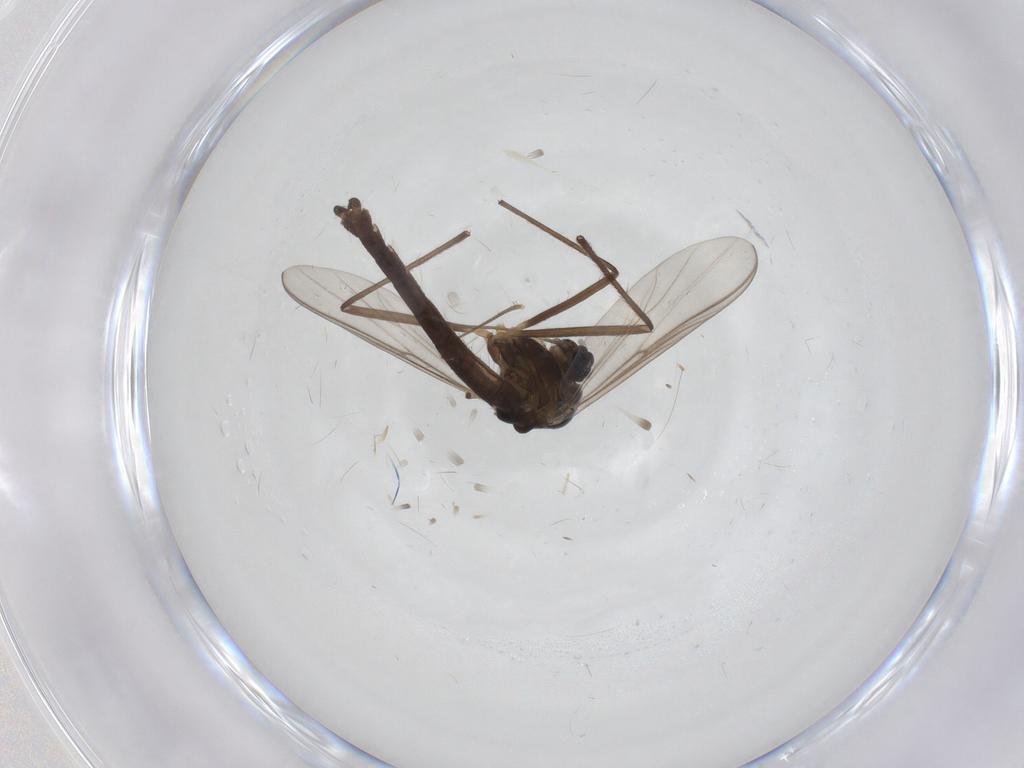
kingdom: Animalia
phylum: Arthropoda
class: Insecta
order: Diptera
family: Chironomidae
